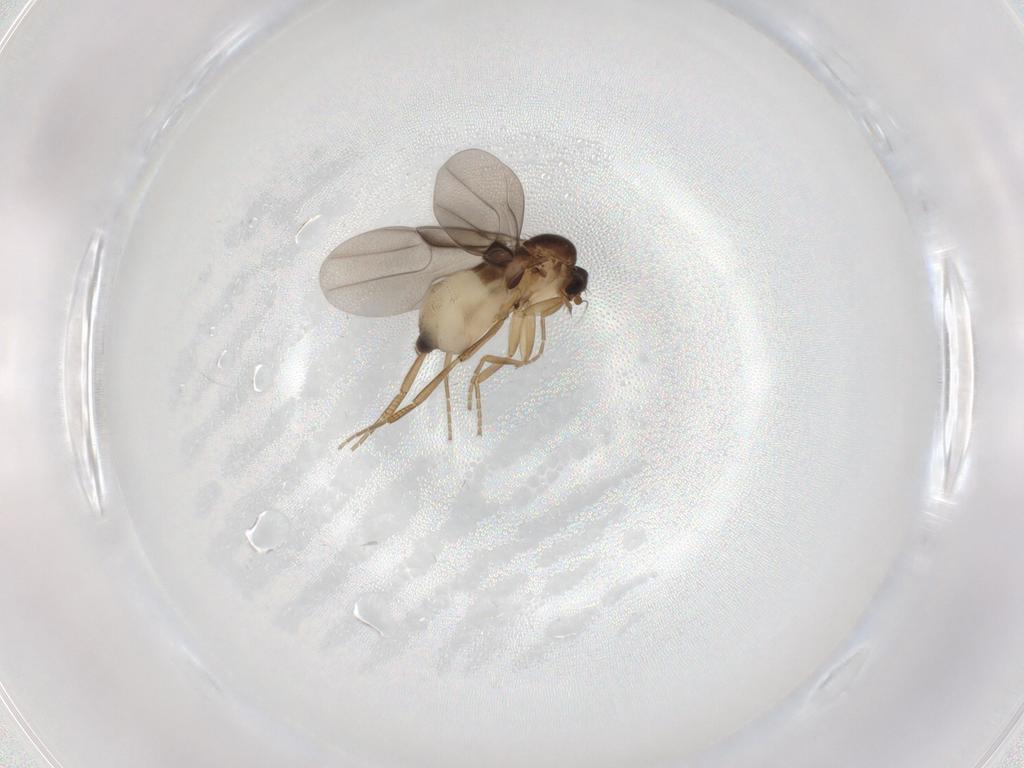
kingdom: Animalia
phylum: Arthropoda
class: Insecta
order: Diptera
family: Phoridae
